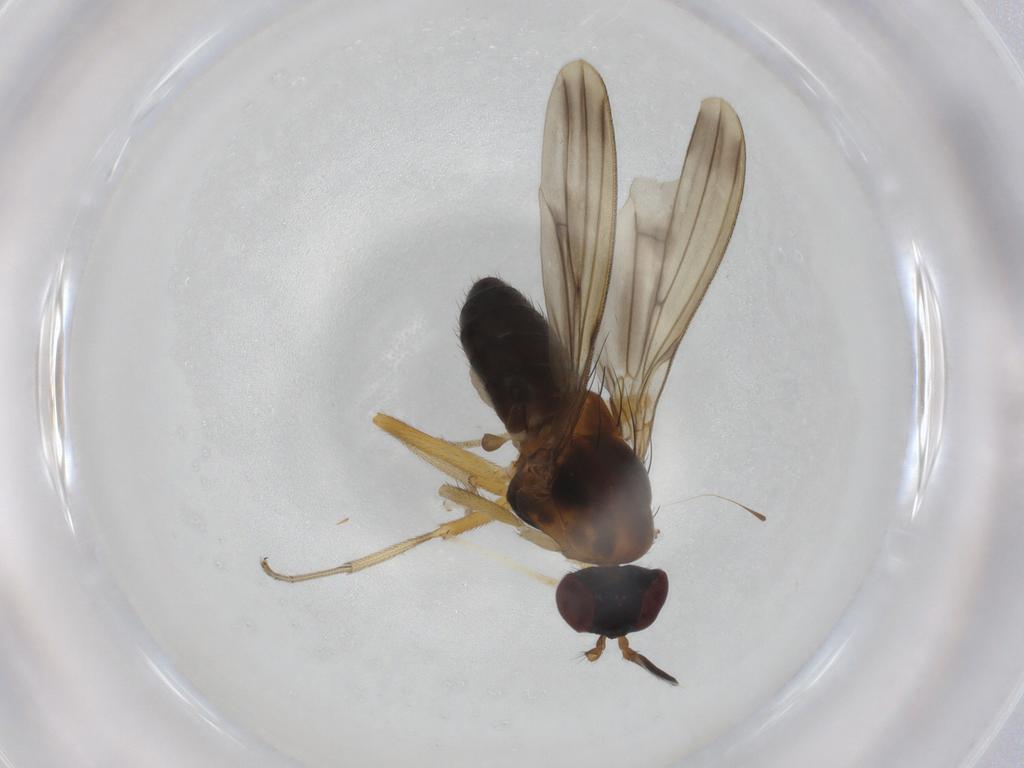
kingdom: Animalia
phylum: Arthropoda
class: Insecta
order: Diptera
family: Lauxaniidae
